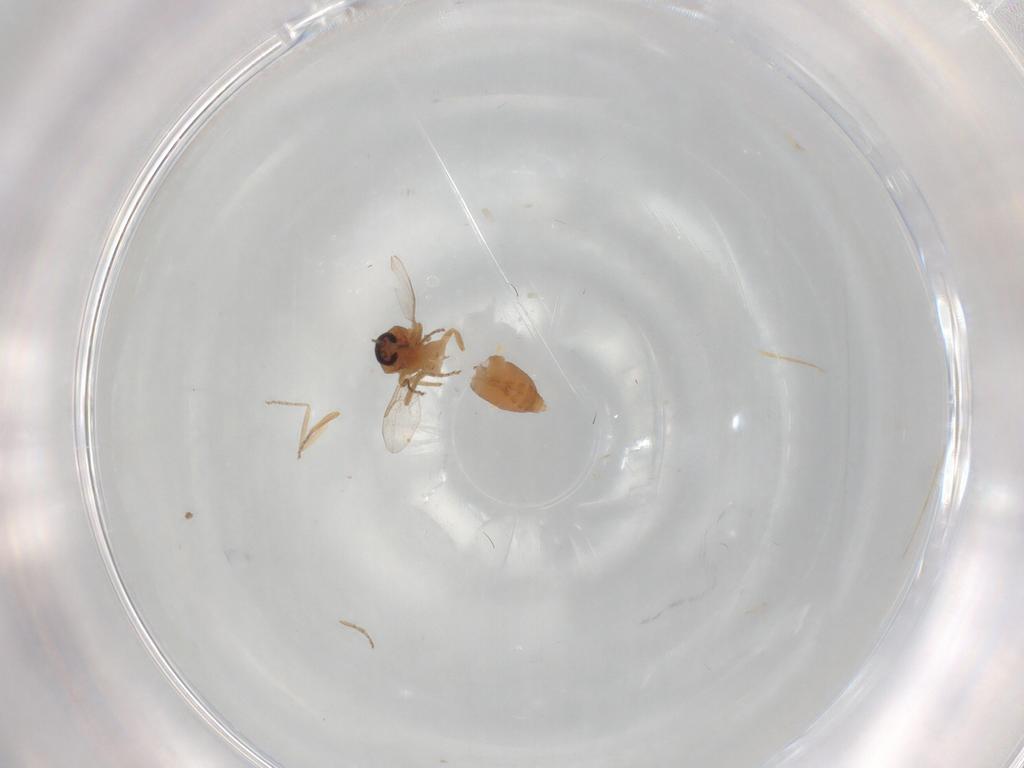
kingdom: Animalia
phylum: Arthropoda
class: Insecta
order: Diptera
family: Ceratopogonidae
